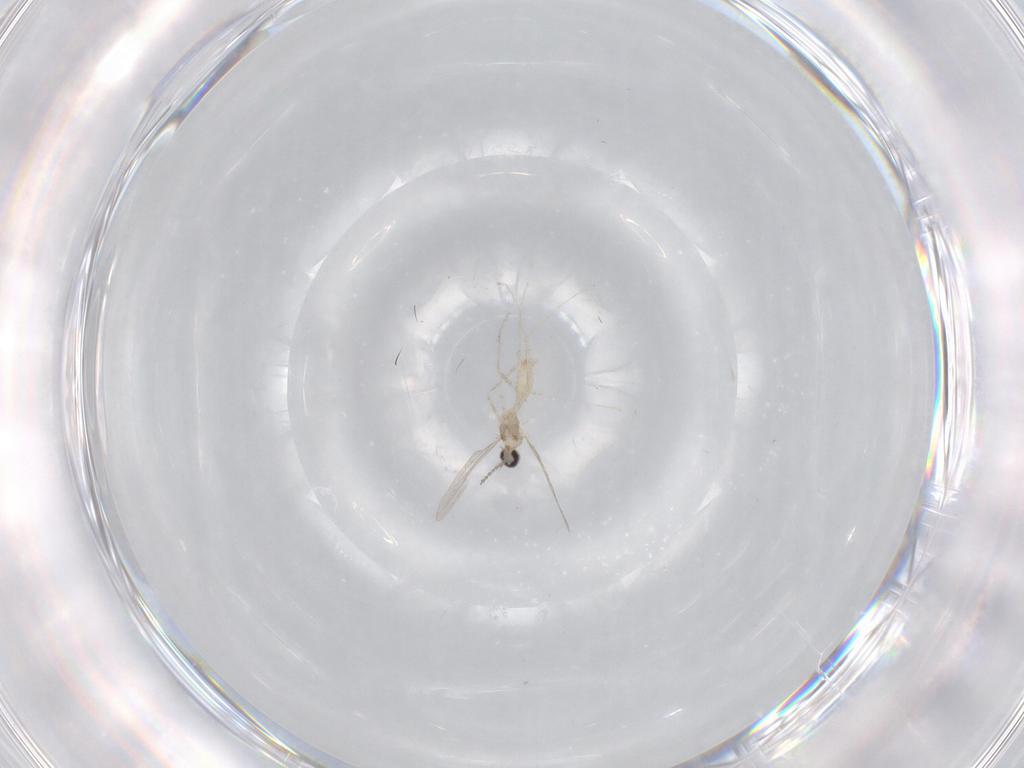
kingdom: Animalia
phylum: Arthropoda
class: Insecta
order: Diptera
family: Cecidomyiidae
